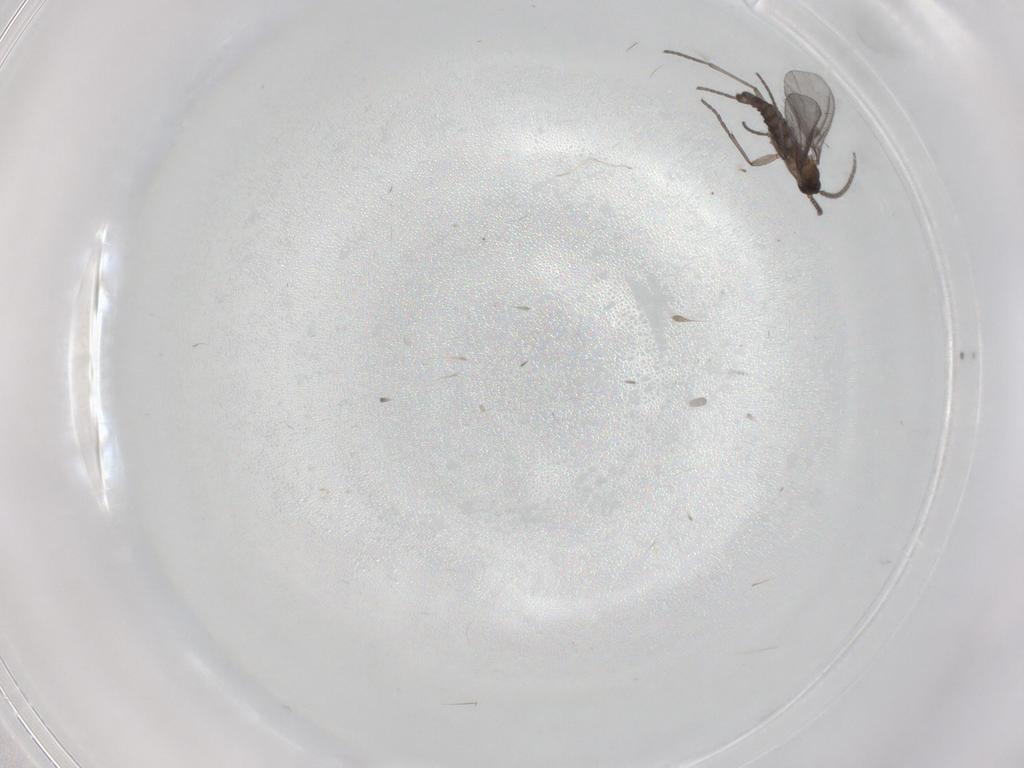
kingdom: Animalia
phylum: Arthropoda
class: Insecta
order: Diptera
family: Sciaridae
